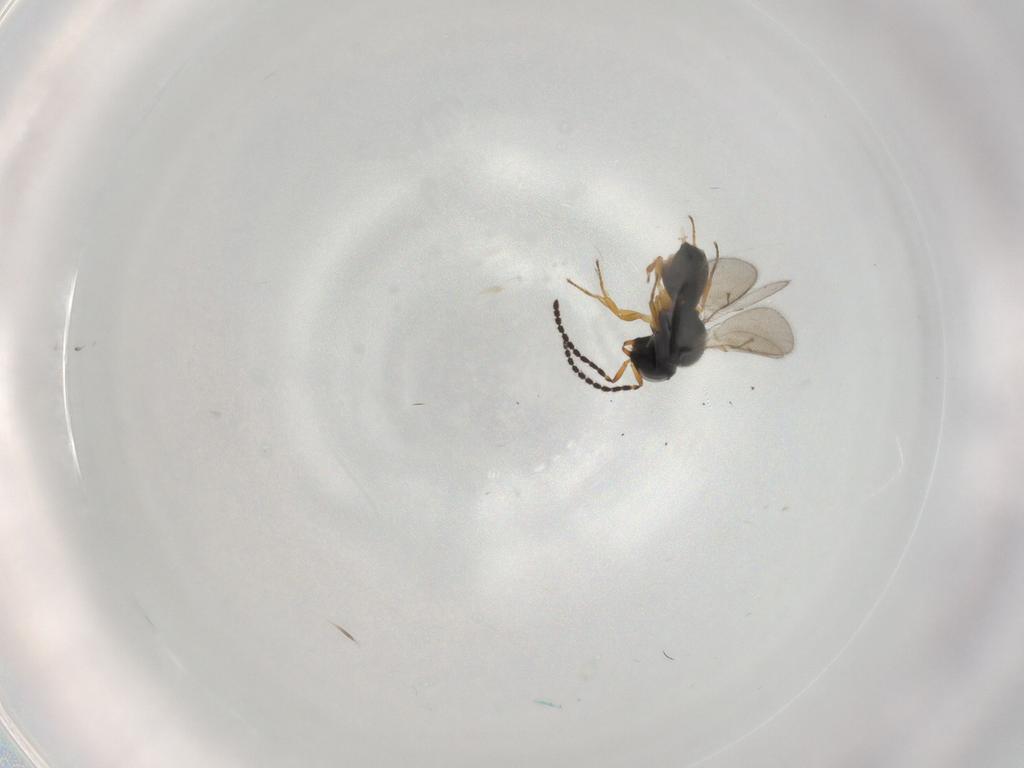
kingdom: Animalia
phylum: Arthropoda
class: Insecta
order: Hymenoptera
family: Scelionidae
